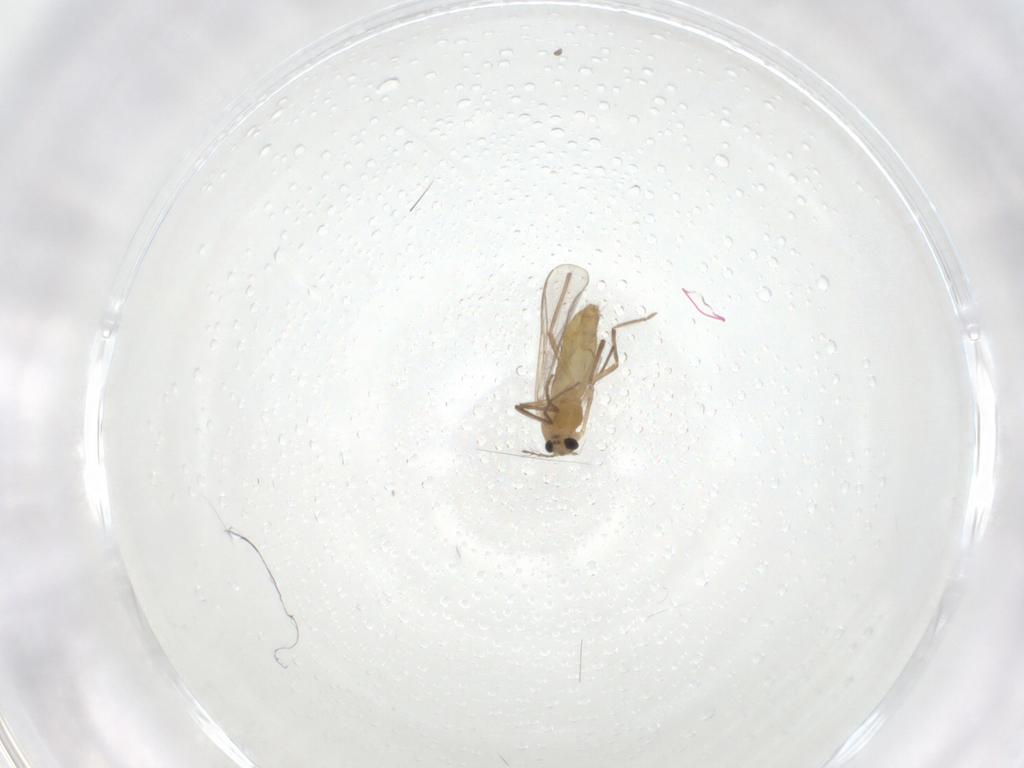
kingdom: Animalia
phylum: Arthropoda
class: Insecta
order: Diptera
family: Chironomidae
